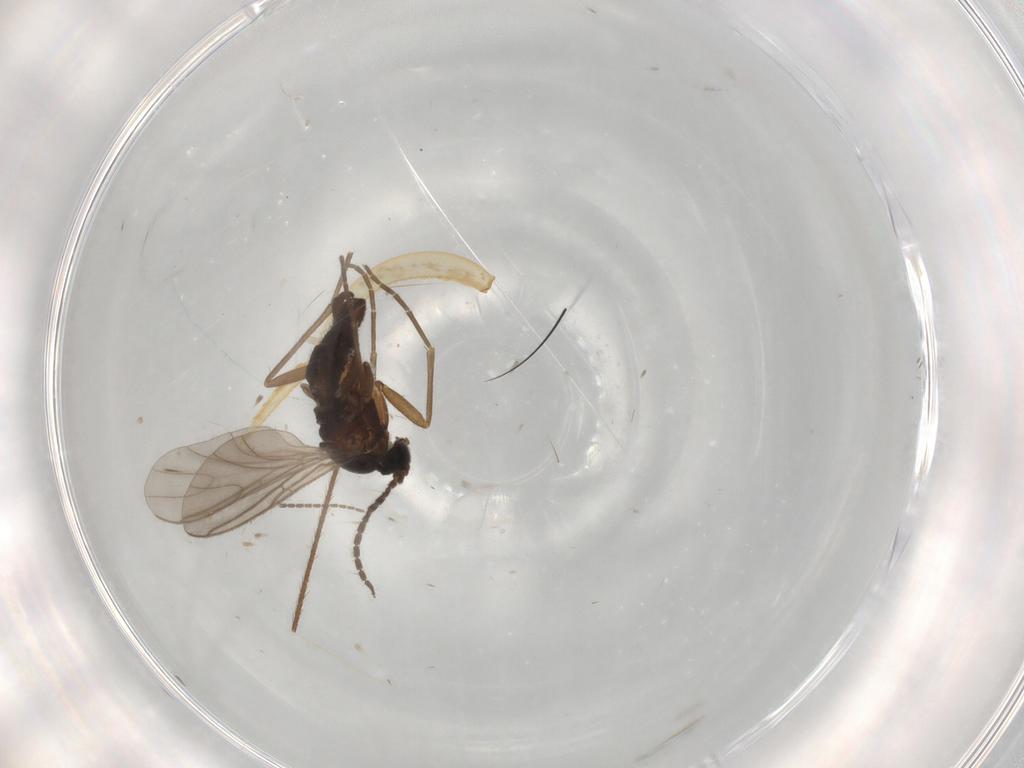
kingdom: Animalia
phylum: Arthropoda
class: Insecta
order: Diptera
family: Sciaridae
